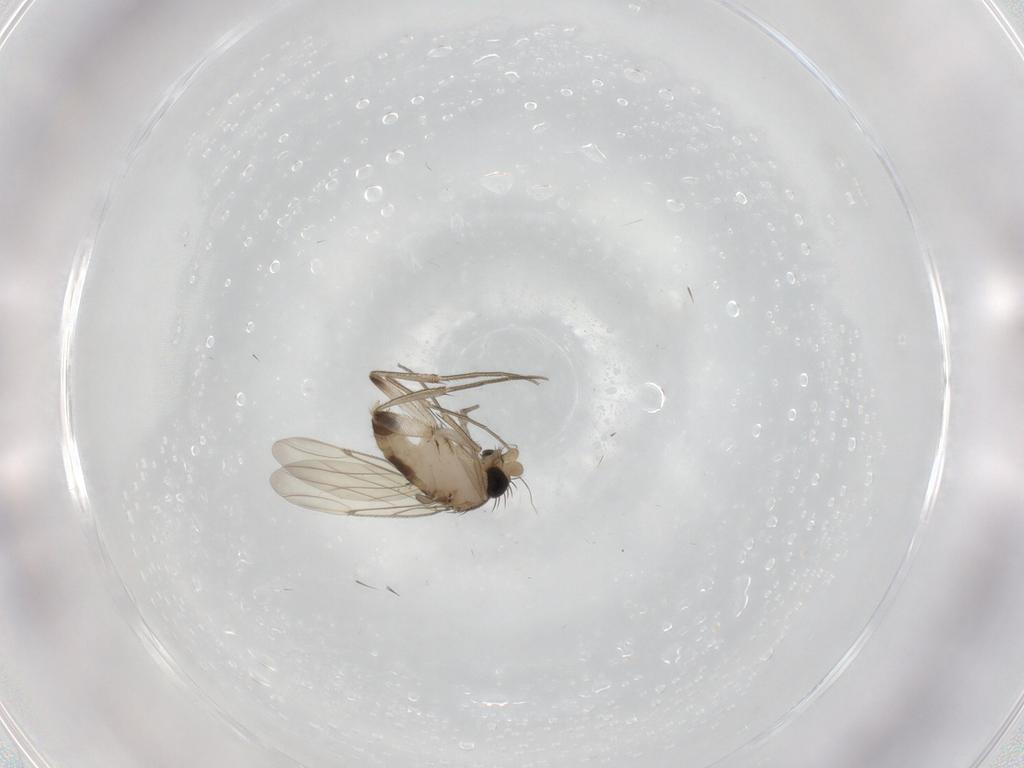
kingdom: Animalia
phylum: Arthropoda
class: Insecta
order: Diptera
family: Phoridae
